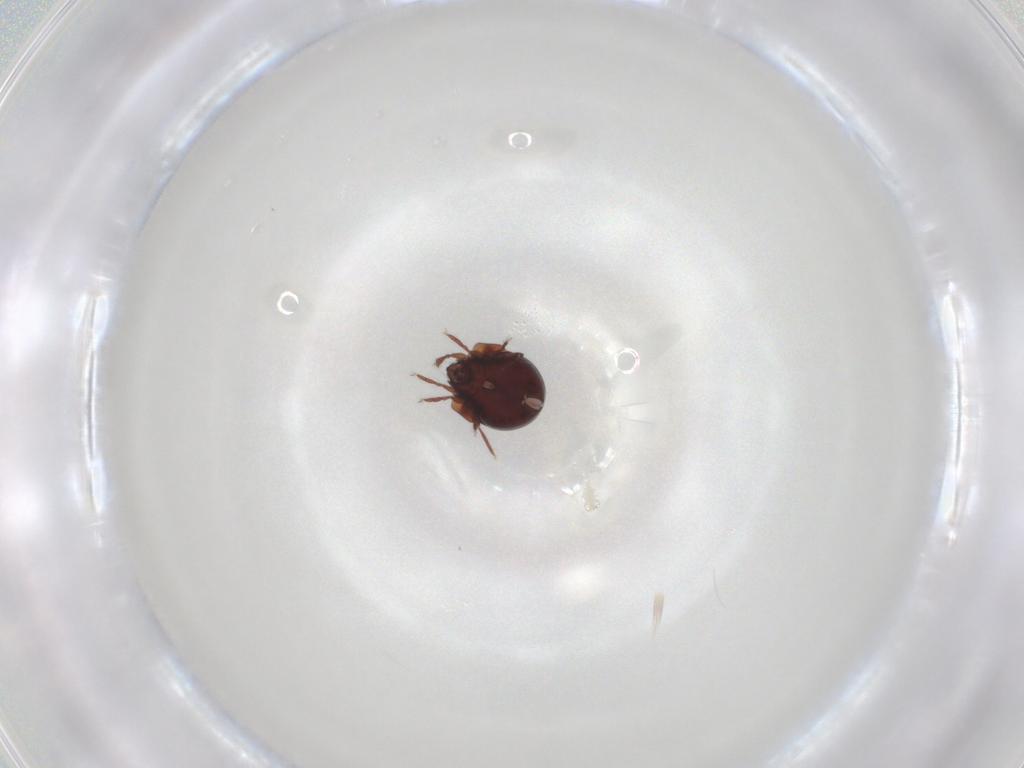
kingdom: Animalia
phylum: Arthropoda
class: Arachnida
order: Sarcoptiformes
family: Humerobatidae
